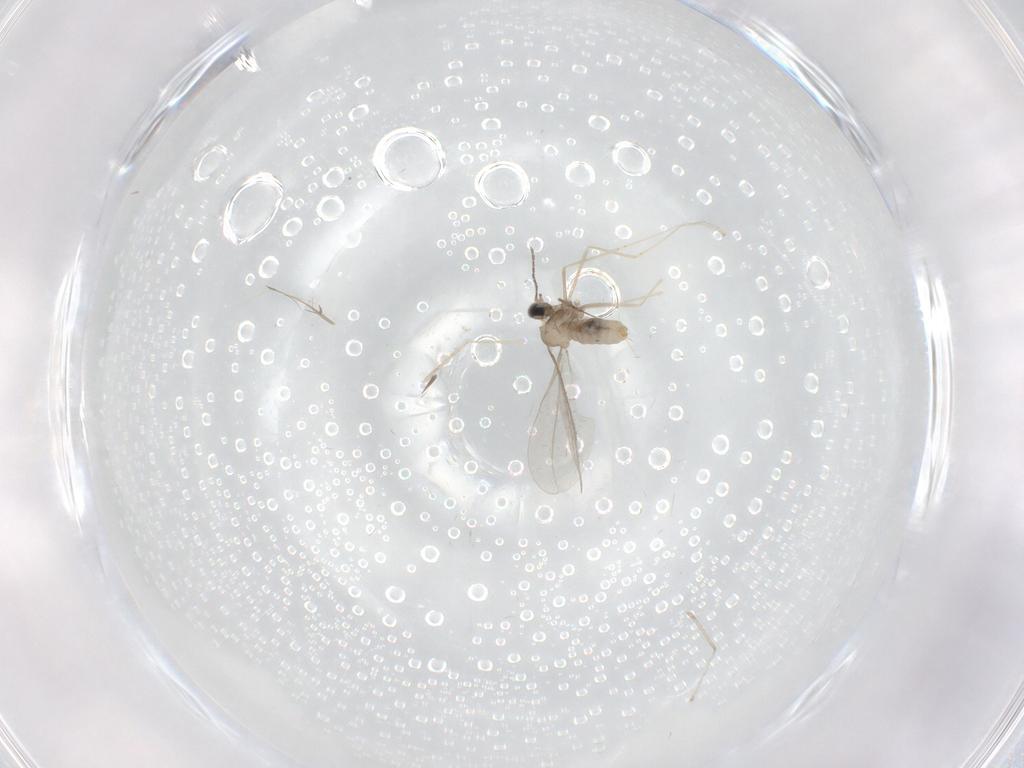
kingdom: Animalia
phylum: Arthropoda
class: Insecta
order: Diptera
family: Cecidomyiidae
